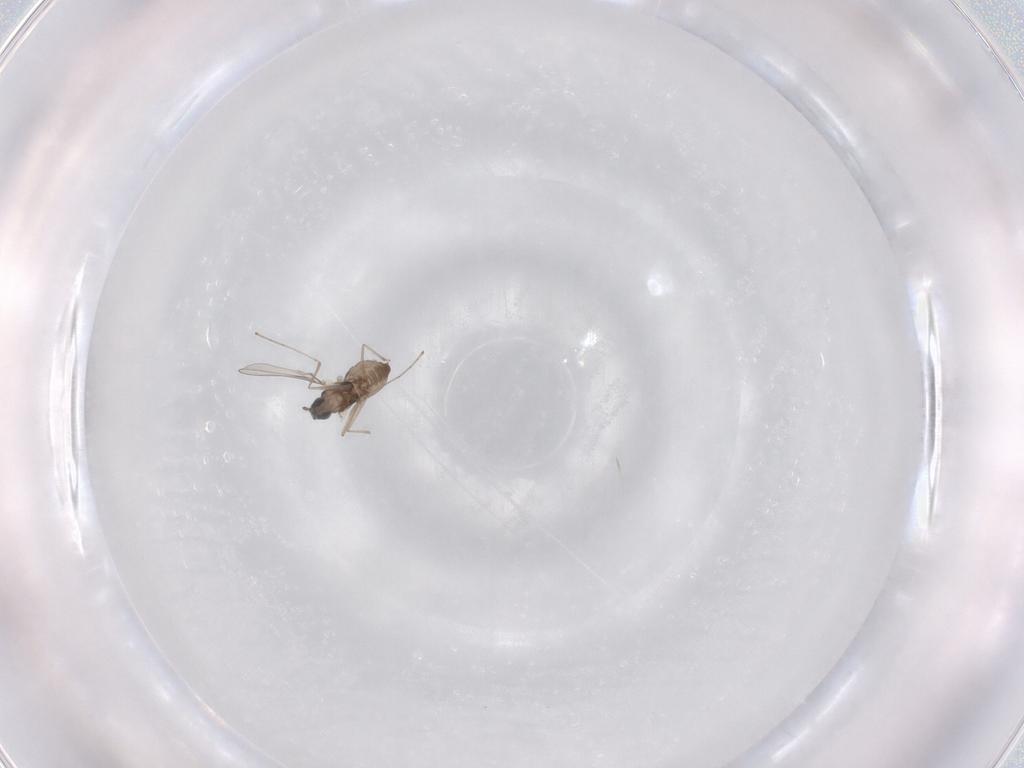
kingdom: Animalia
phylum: Arthropoda
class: Insecta
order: Diptera
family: Cecidomyiidae
